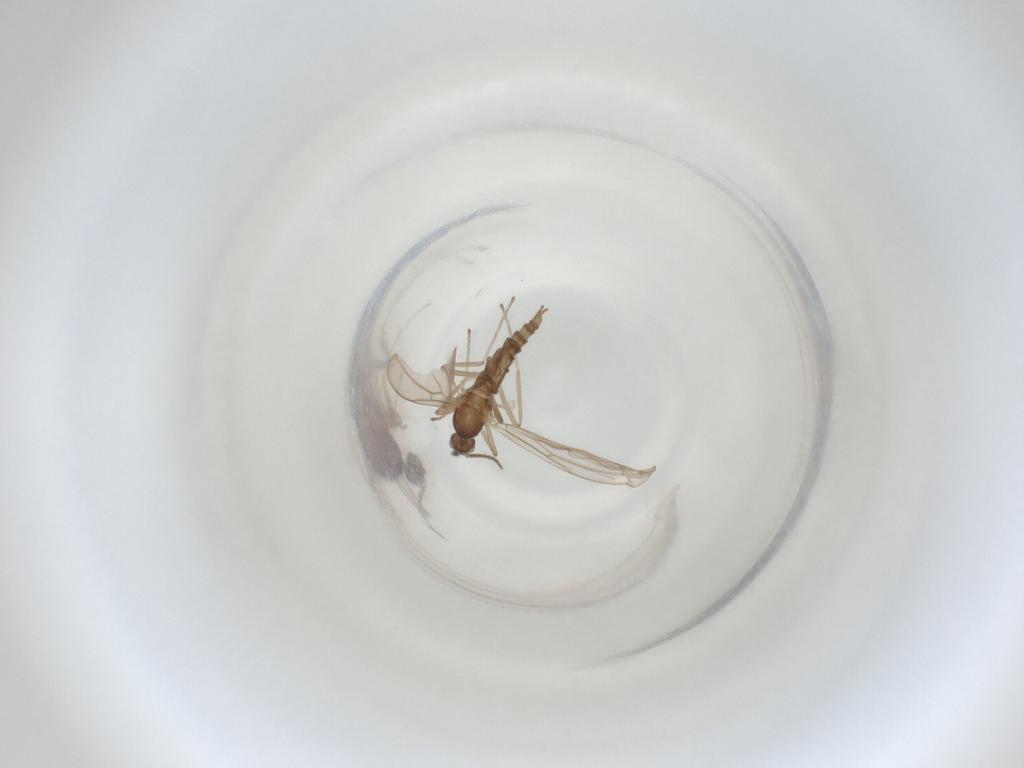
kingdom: Animalia
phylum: Arthropoda
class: Insecta
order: Diptera
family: Cecidomyiidae
